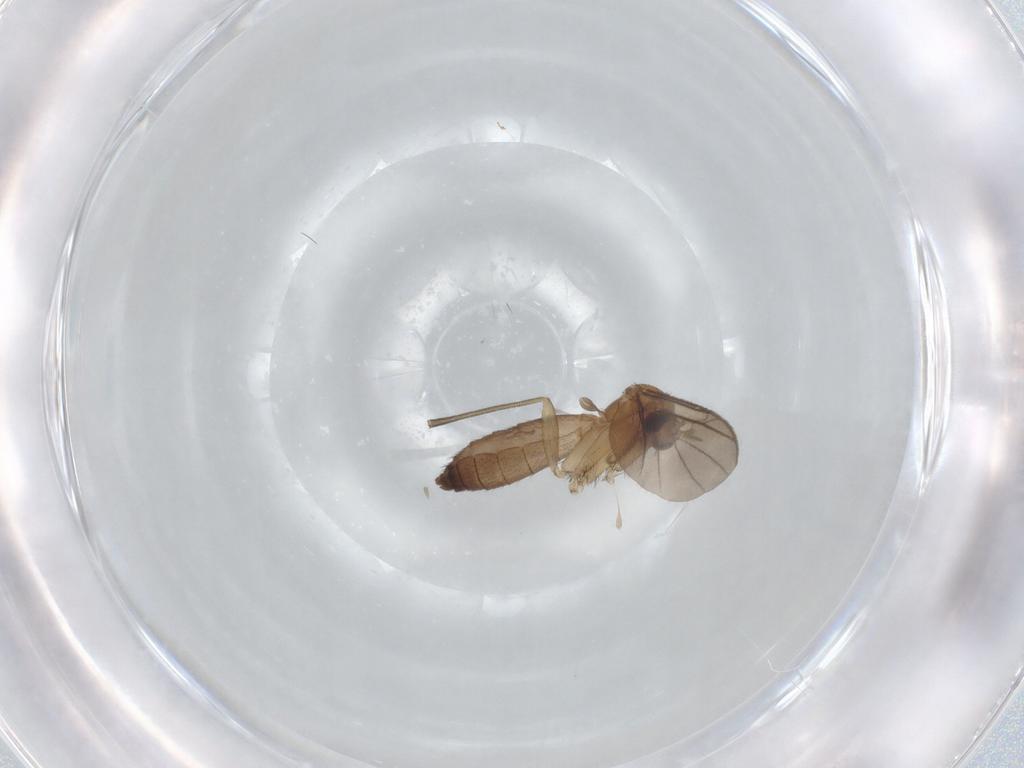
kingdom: Animalia
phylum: Arthropoda
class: Insecta
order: Diptera
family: Keroplatidae
